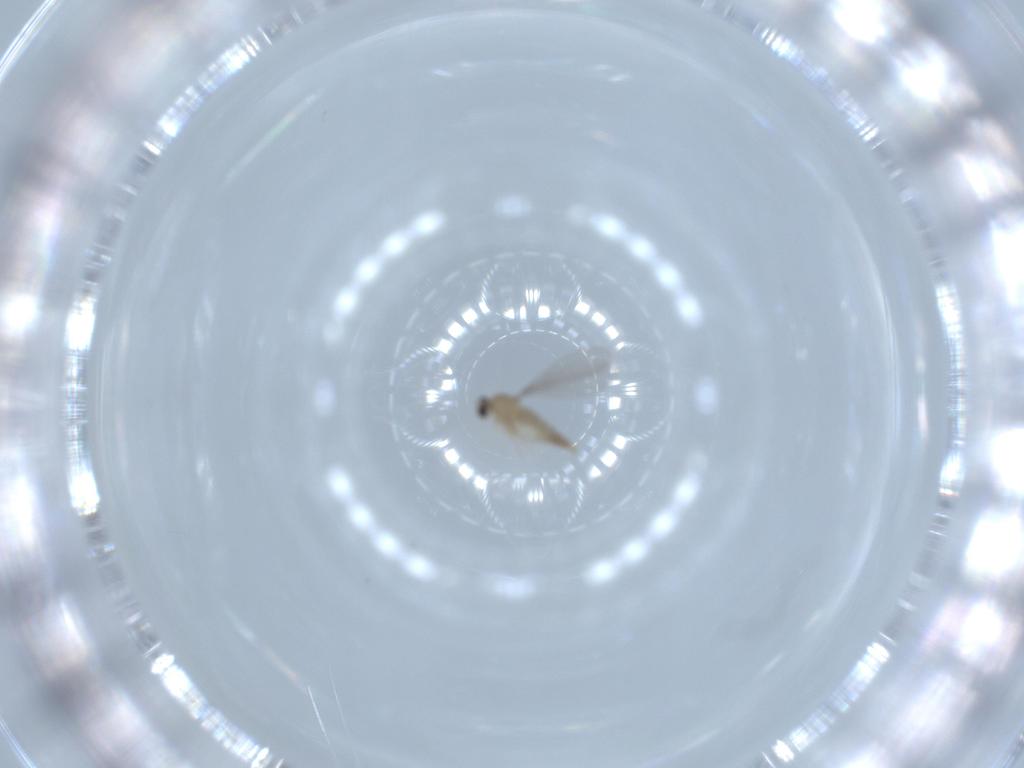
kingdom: Animalia
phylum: Arthropoda
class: Insecta
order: Diptera
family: Cecidomyiidae
